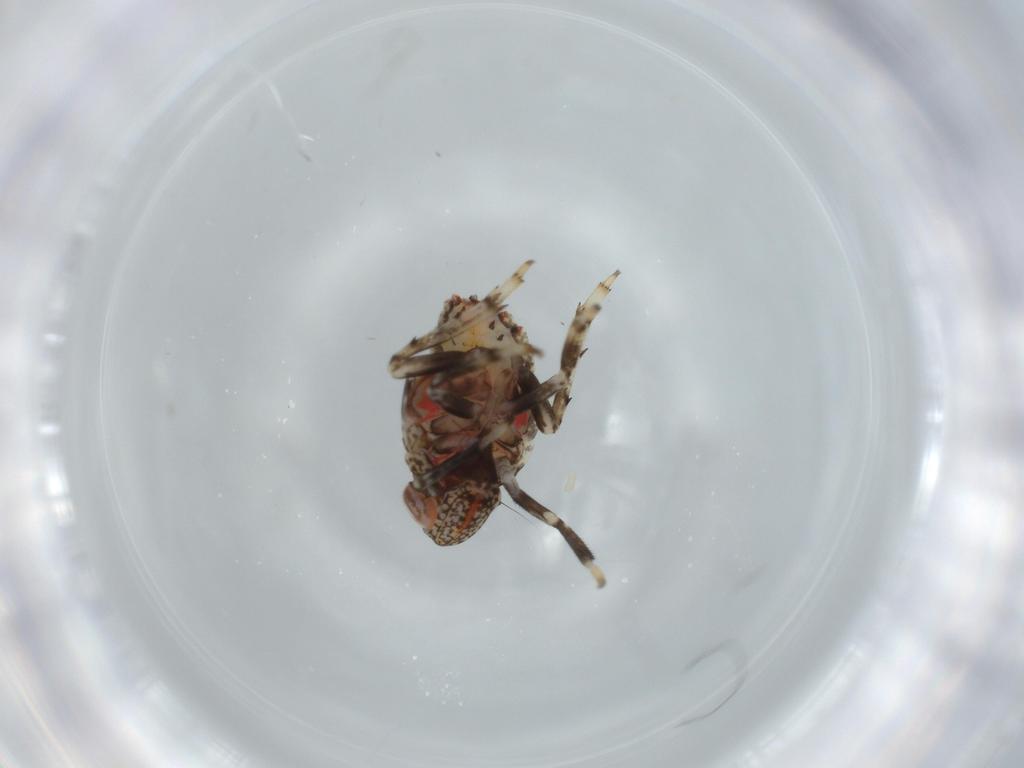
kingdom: Animalia
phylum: Arthropoda
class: Insecta
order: Hemiptera
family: Issidae
